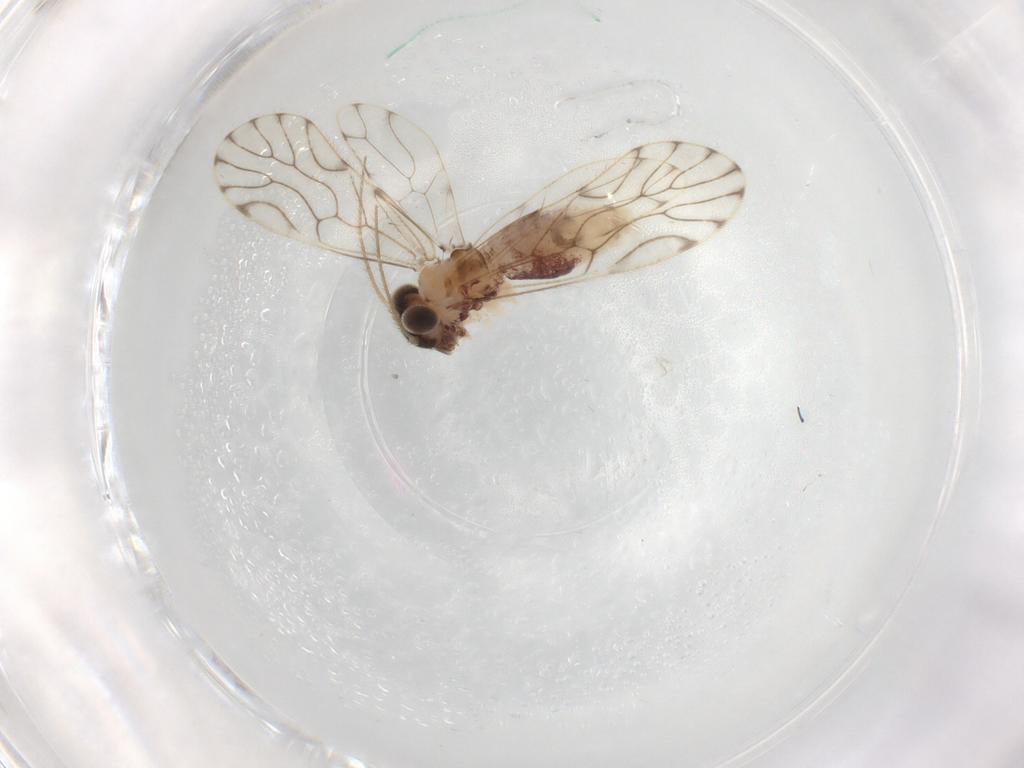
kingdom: Animalia
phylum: Arthropoda
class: Insecta
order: Psocodea
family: Epipsocidae
